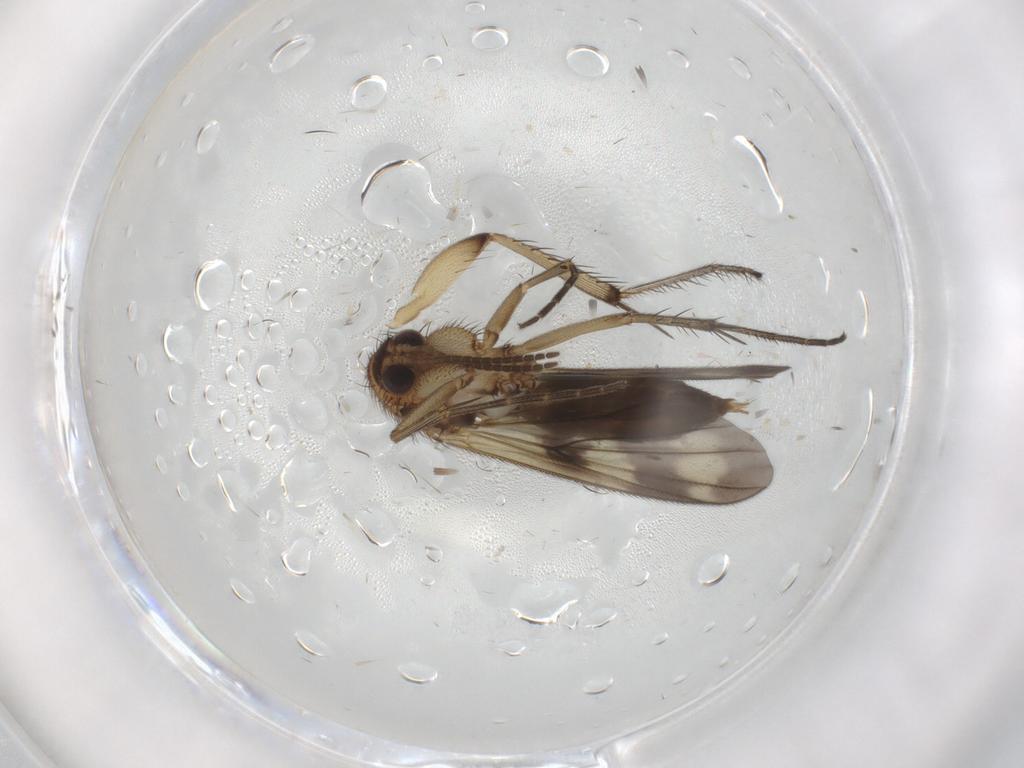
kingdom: Animalia
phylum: Arthropoda
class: Insecta
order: Diptera
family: Mycetophilidae
